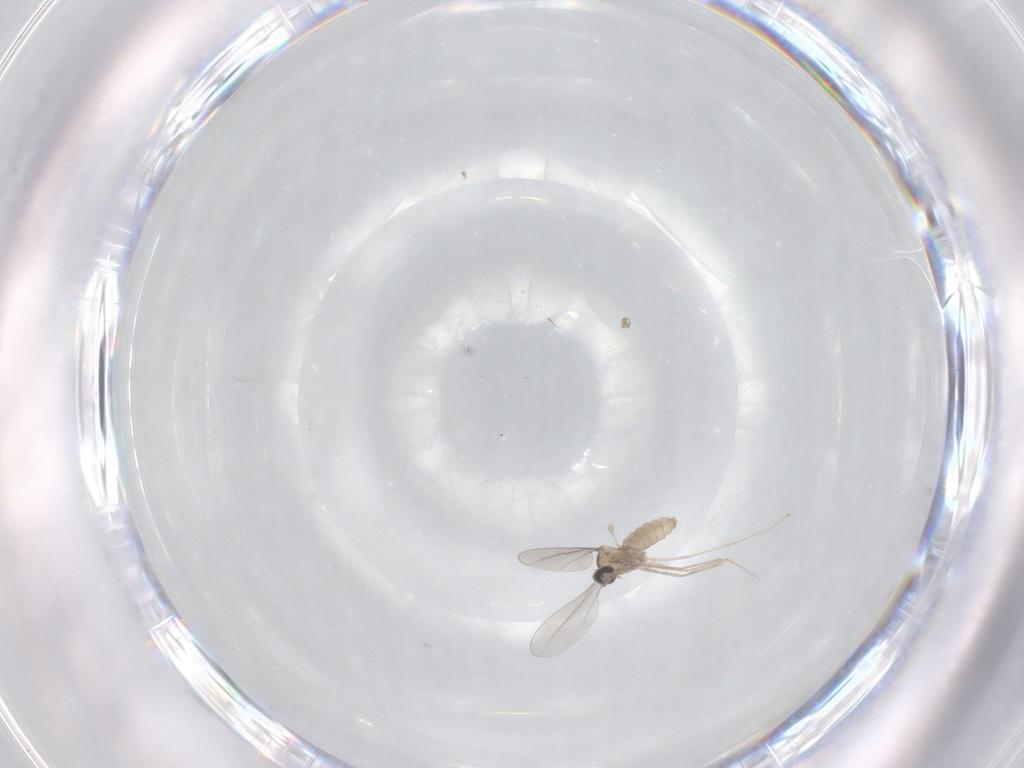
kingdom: Animalia
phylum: Arthropoda
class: Insecta
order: Diptera
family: Cecidomyiidae
